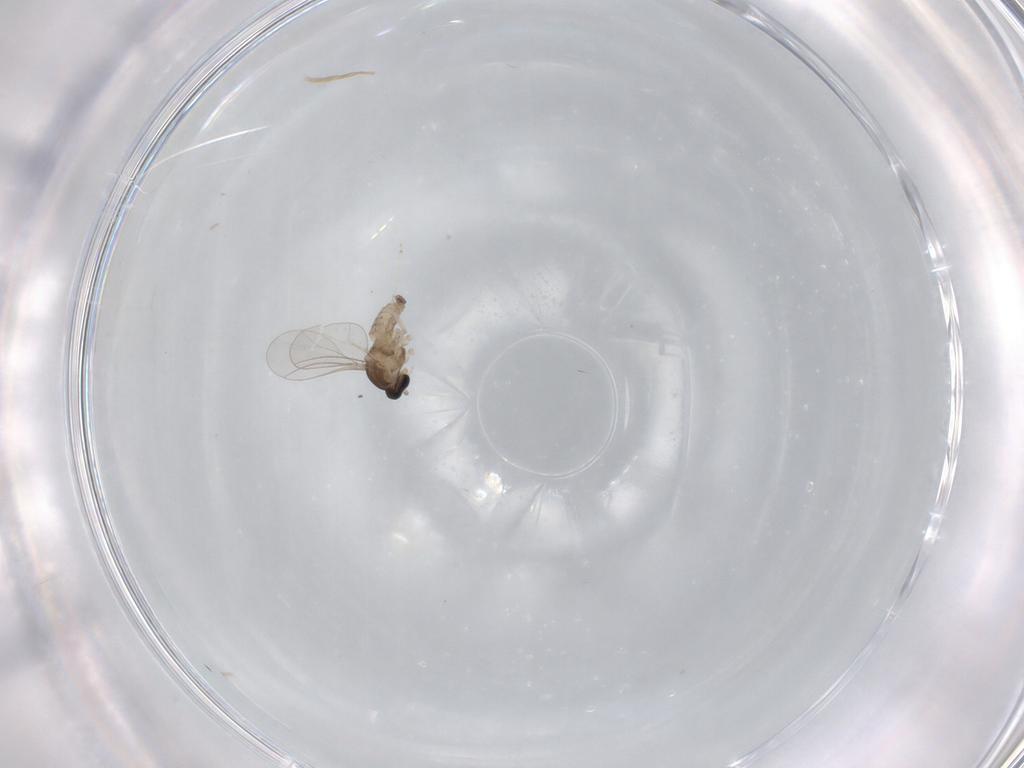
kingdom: Animalia
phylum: Arthropoda
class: Insecta
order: Diptera
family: Cecidomyiidae
